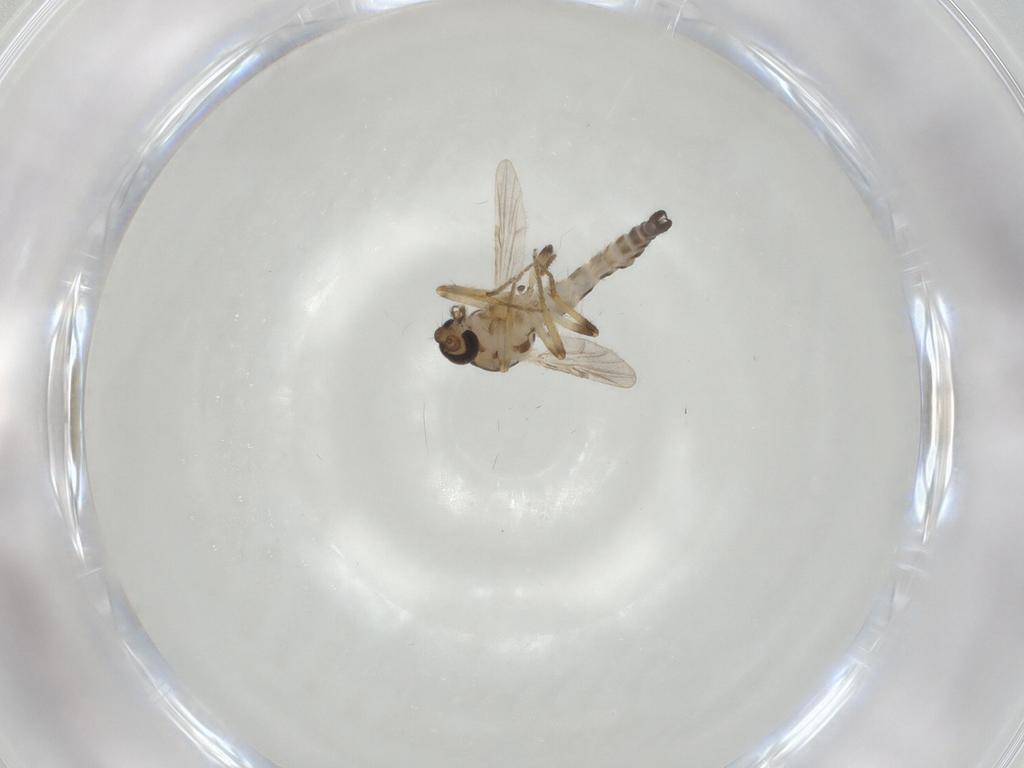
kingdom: Animalia
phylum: Arthropoda
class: Insecta
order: Diptera
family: Ceratopogonidae
